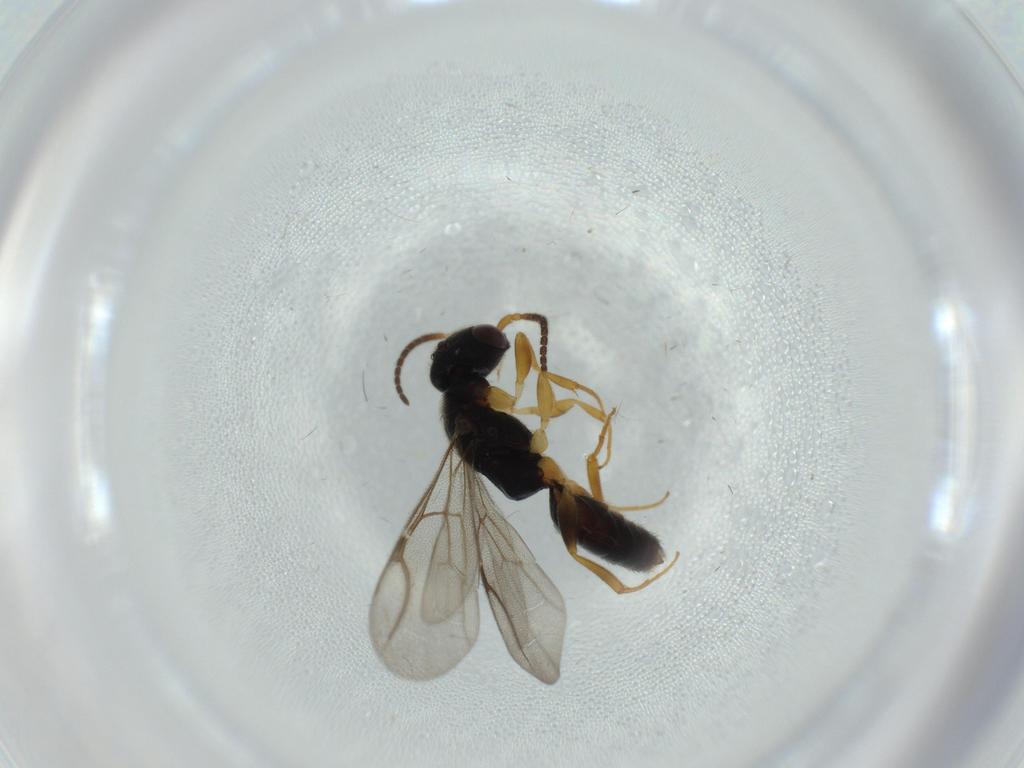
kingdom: Animalia
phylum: Arthropoda
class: Insecta
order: Hymenoptera
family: Bethylidae
